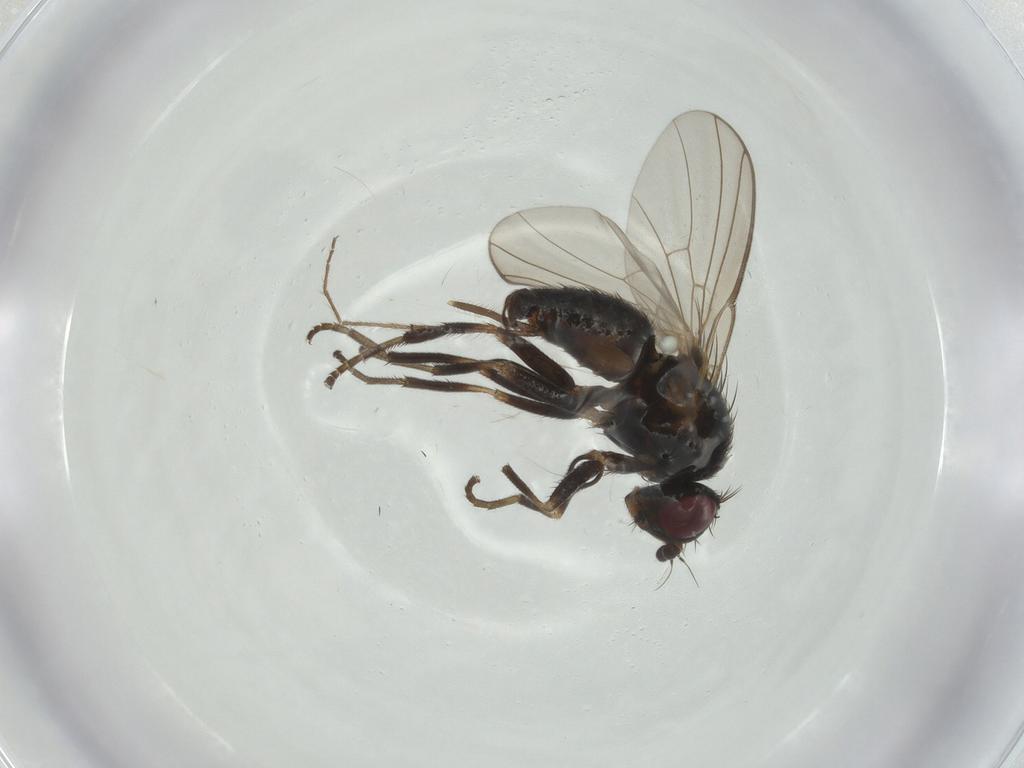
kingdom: Animalia
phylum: Arthropoda
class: Insecta
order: Diptera
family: Chironomidae
